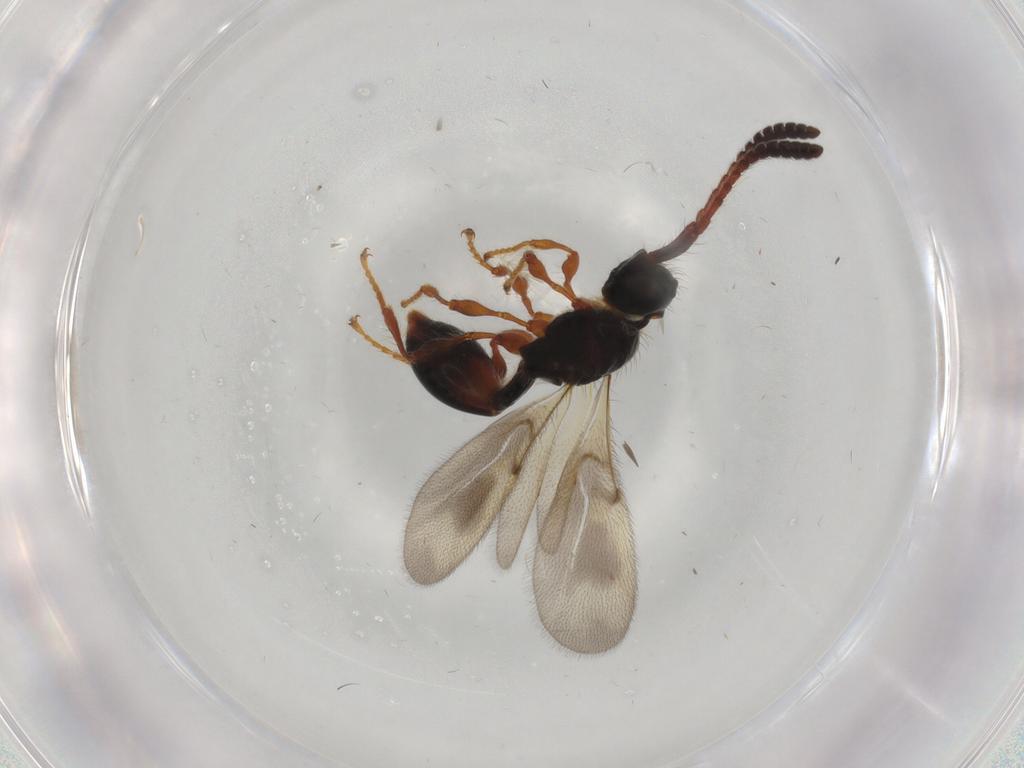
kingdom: Animalia
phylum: Arthropoda
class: Insecta
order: Hymenoptera
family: Diapriidae
